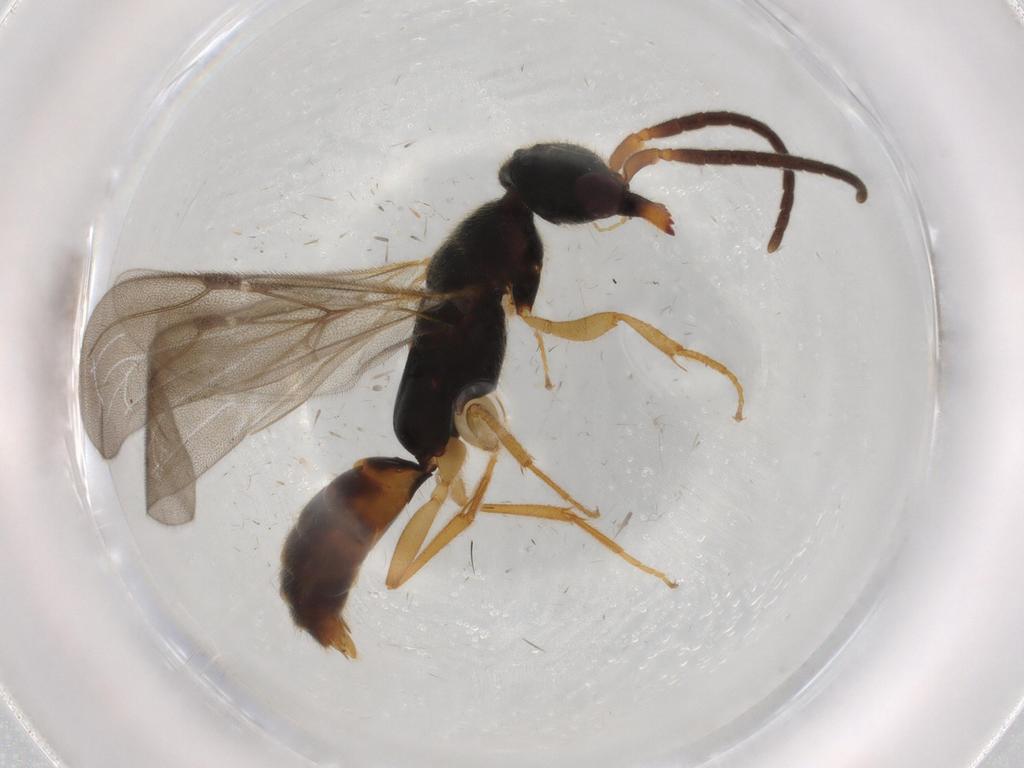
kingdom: Animalia
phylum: Arthropoda
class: Insecta
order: Hymenoptera
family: Bethylidae
